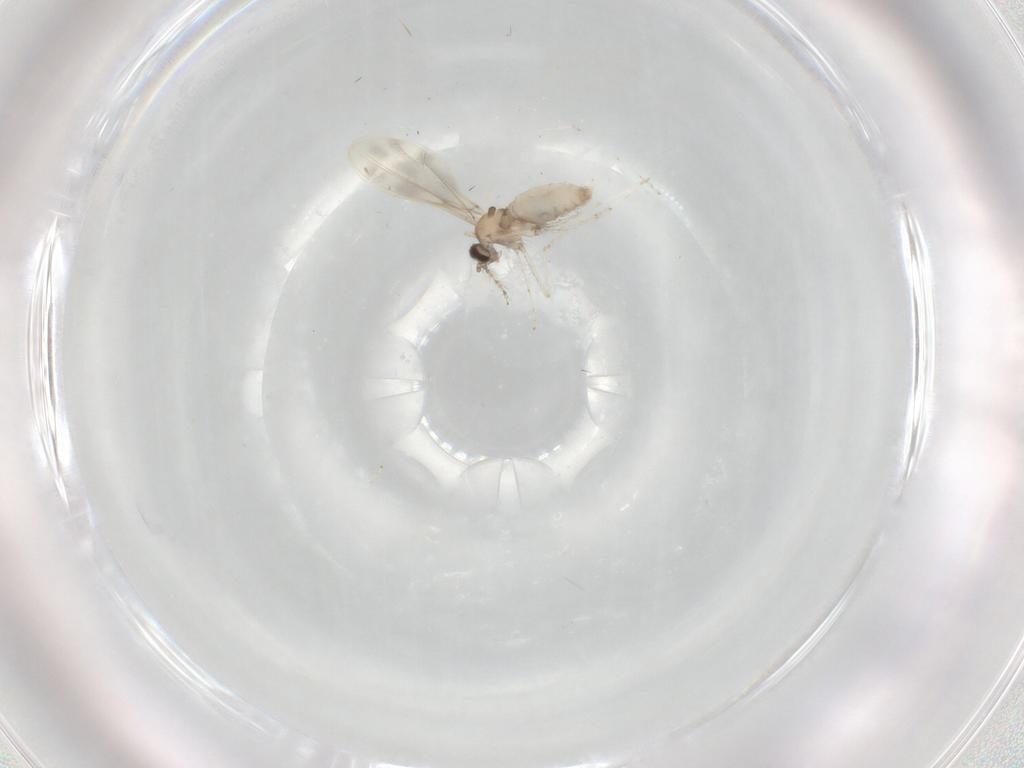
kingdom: Animalia
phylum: Arthropoda
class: Insecta
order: Diptera
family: Cecidomyiidae
